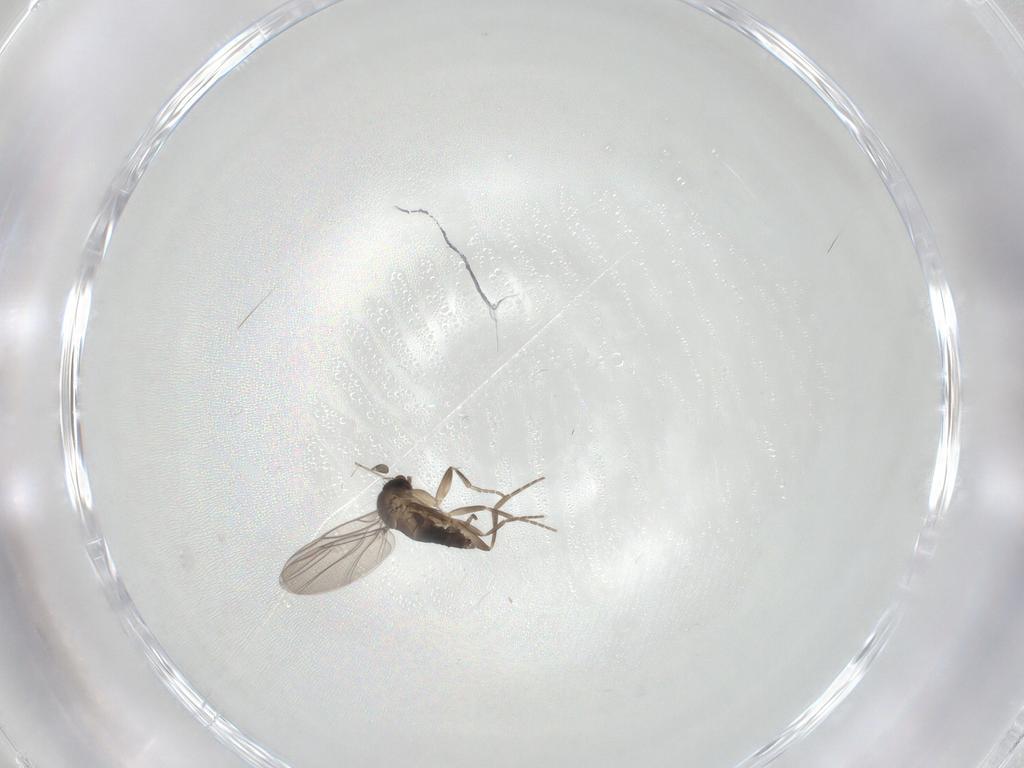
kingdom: Animalia
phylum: Arthropoda
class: Insecta
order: Diptera
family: Cecidomyiidae
